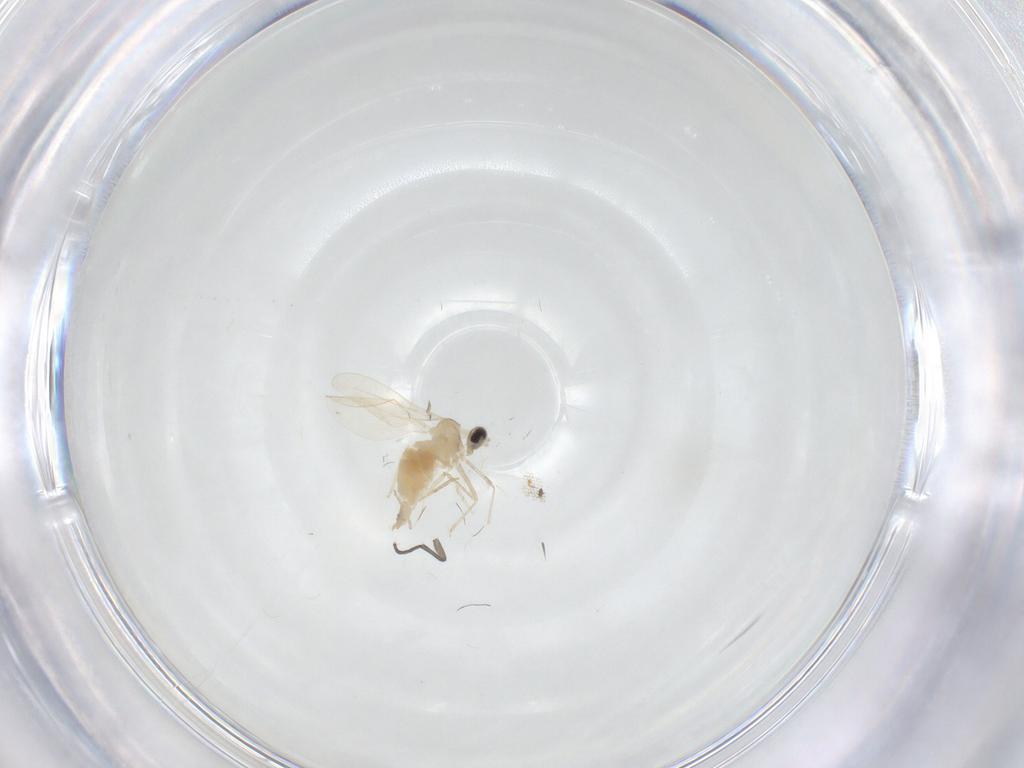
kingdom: Animalia
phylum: Arthropoda
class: Insecta
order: Diptera
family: Cecidomyiidae
